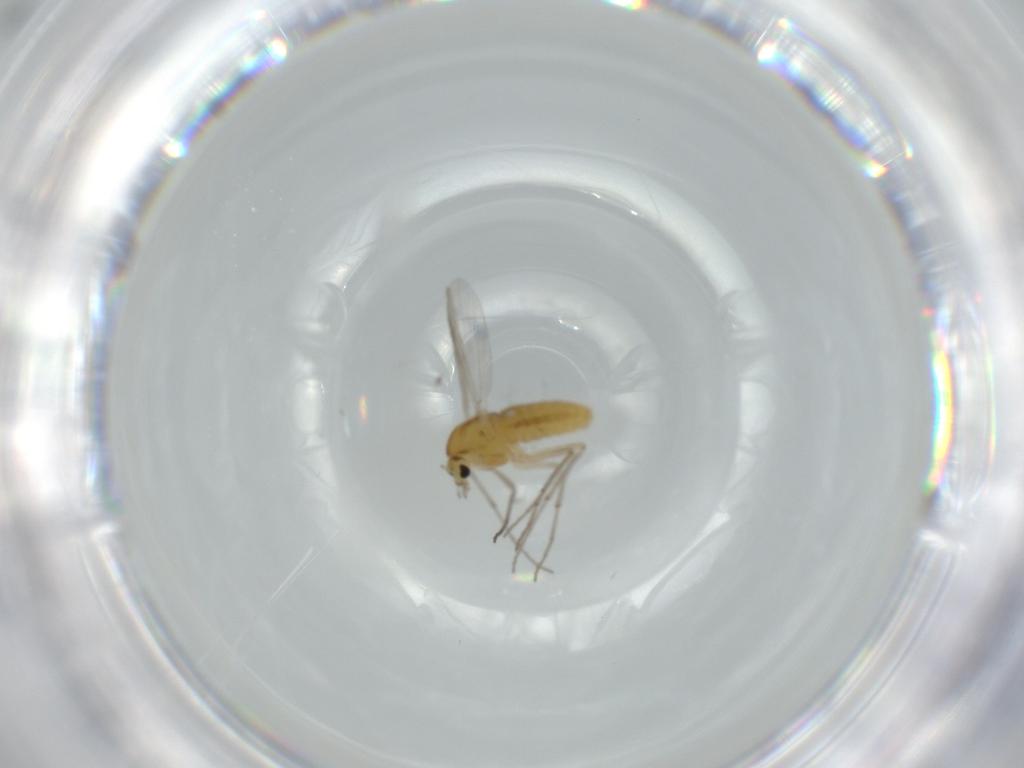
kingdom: Animalia
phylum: Arthropoda
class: Insecta
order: Diptera
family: Chironomidae
